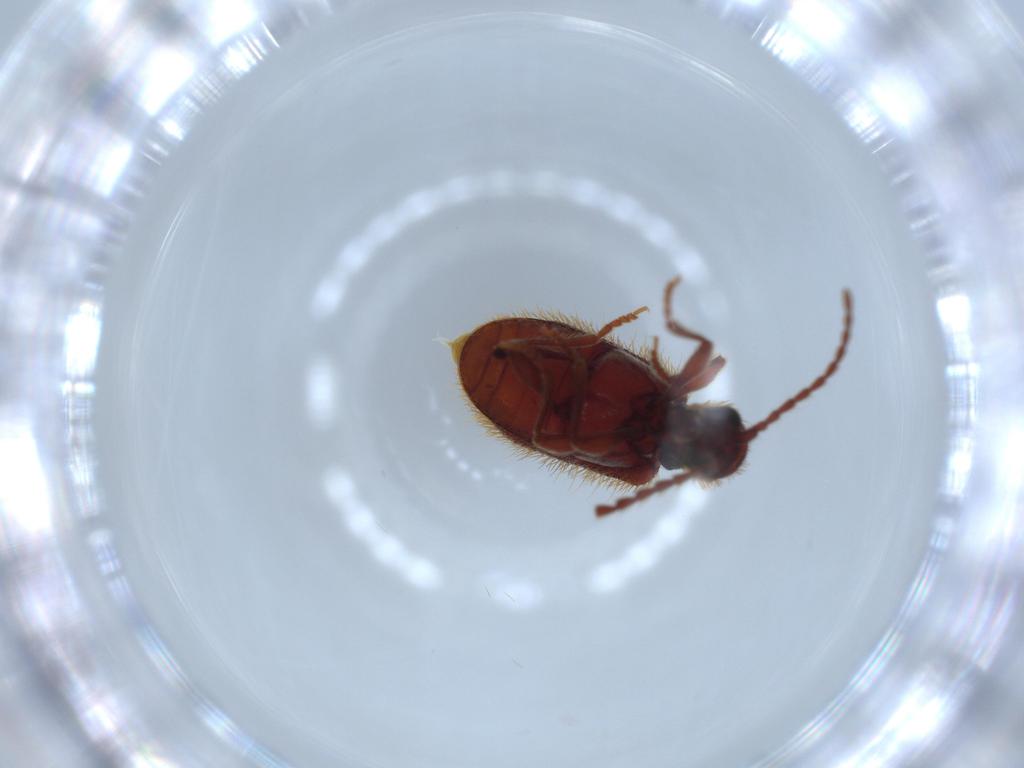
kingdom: Animalia
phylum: Arthropoda
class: Insecta
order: Coleoptera
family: Ptinidae
